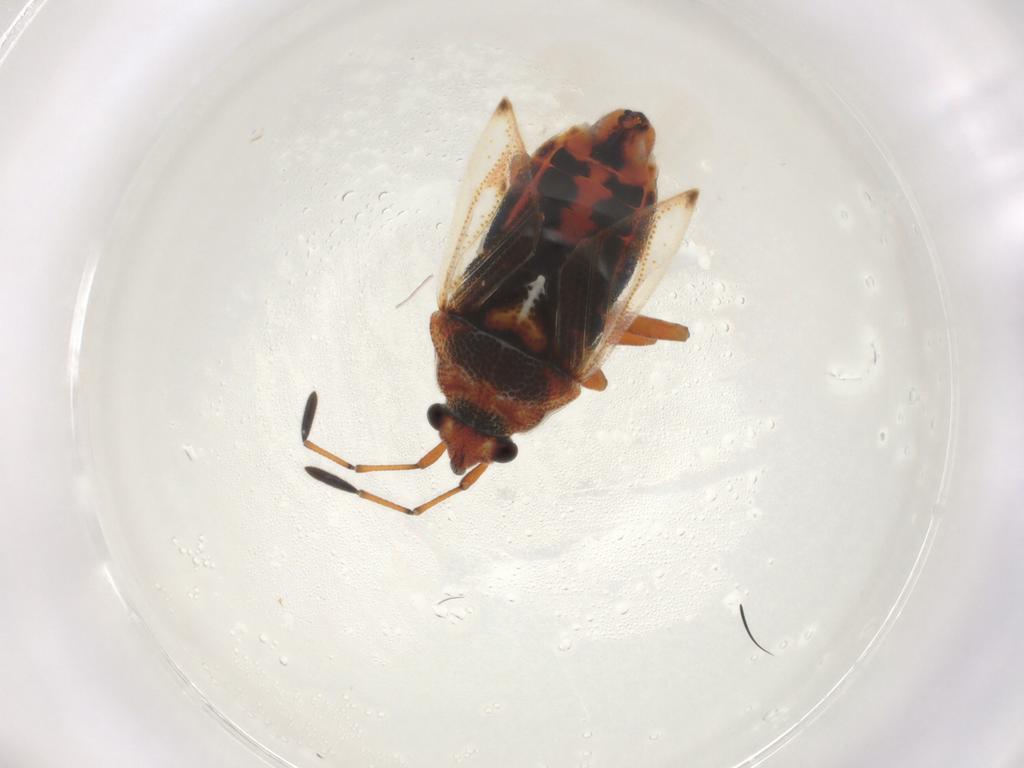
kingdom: Animalia
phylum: Arthropoda
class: Insecta
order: Hemiptera
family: Lygaeidae
